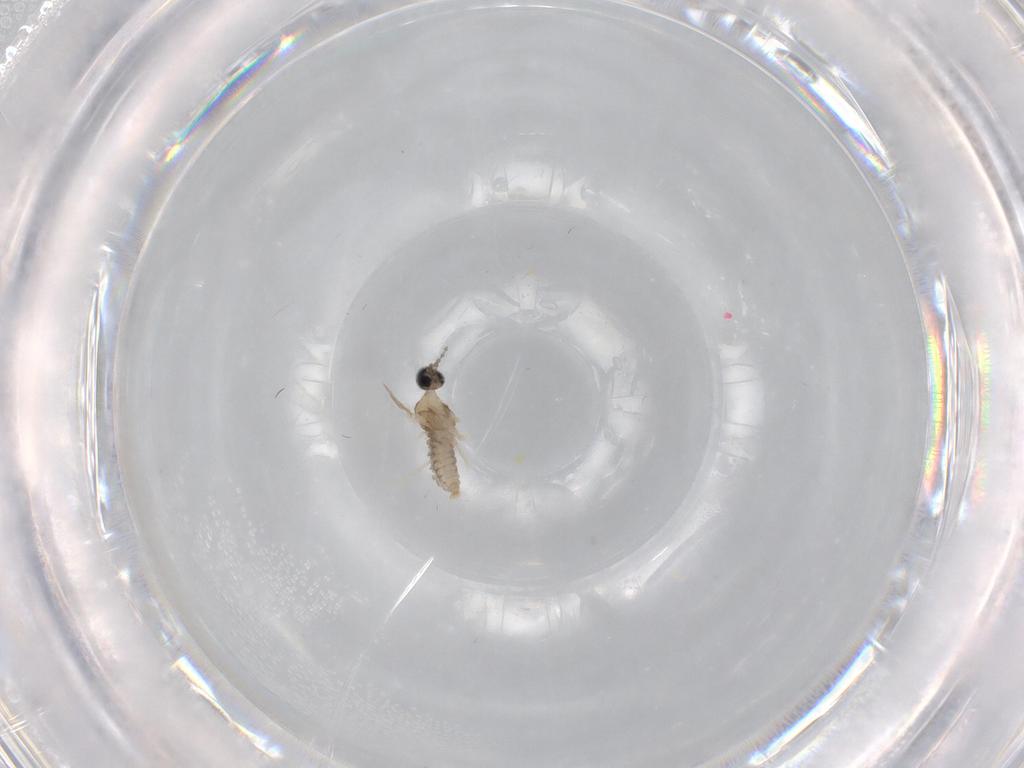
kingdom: Animalia
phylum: Arthropoda
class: Insecta
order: Diptera
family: Cecidomyiidae
